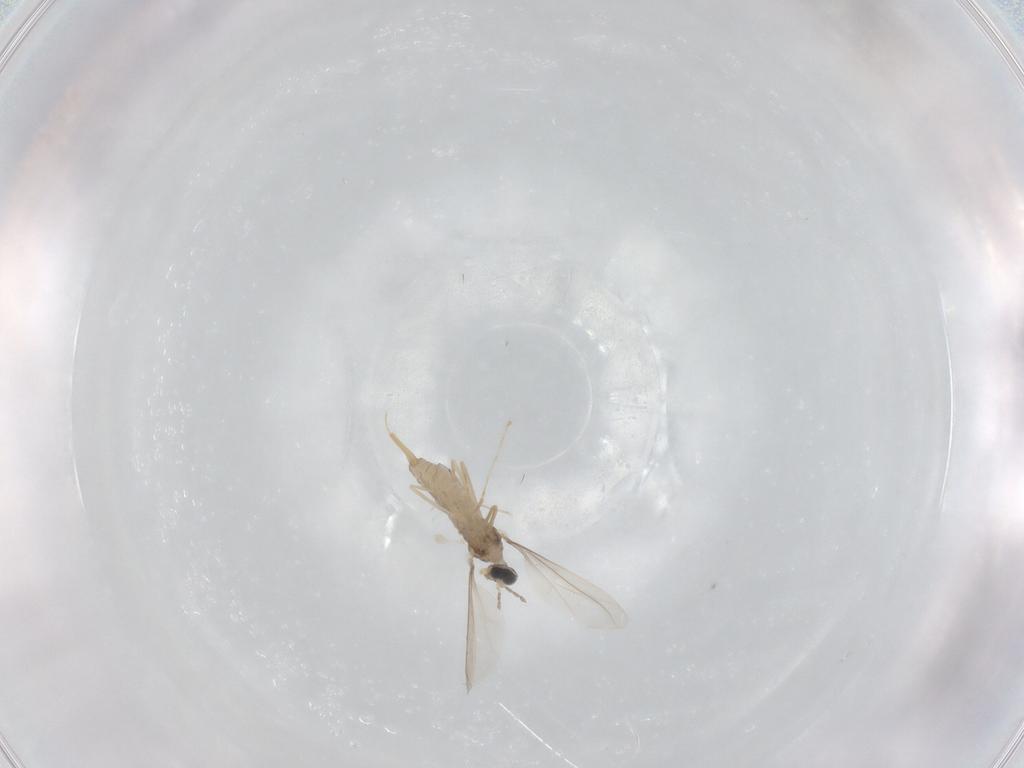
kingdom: Animalia
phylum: Arthropoda
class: Insecta
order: Diptera
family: Cecidomyiidae
